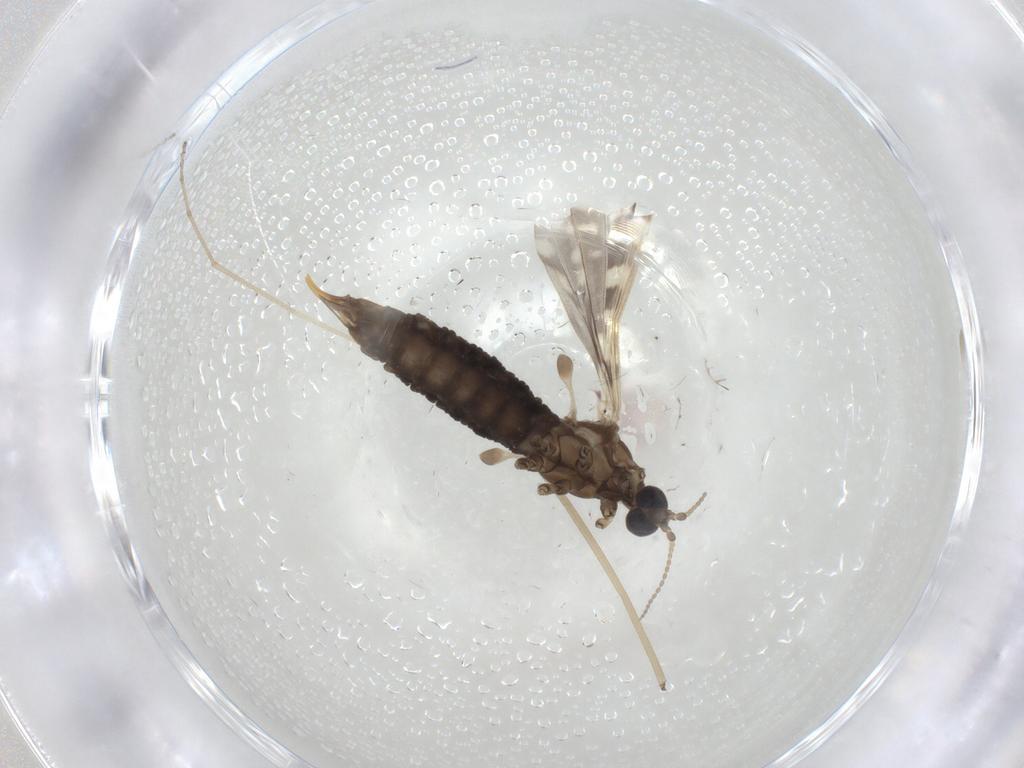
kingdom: Animalia
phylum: Arthropoda
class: Insecta
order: Diptera
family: Limoniidae
